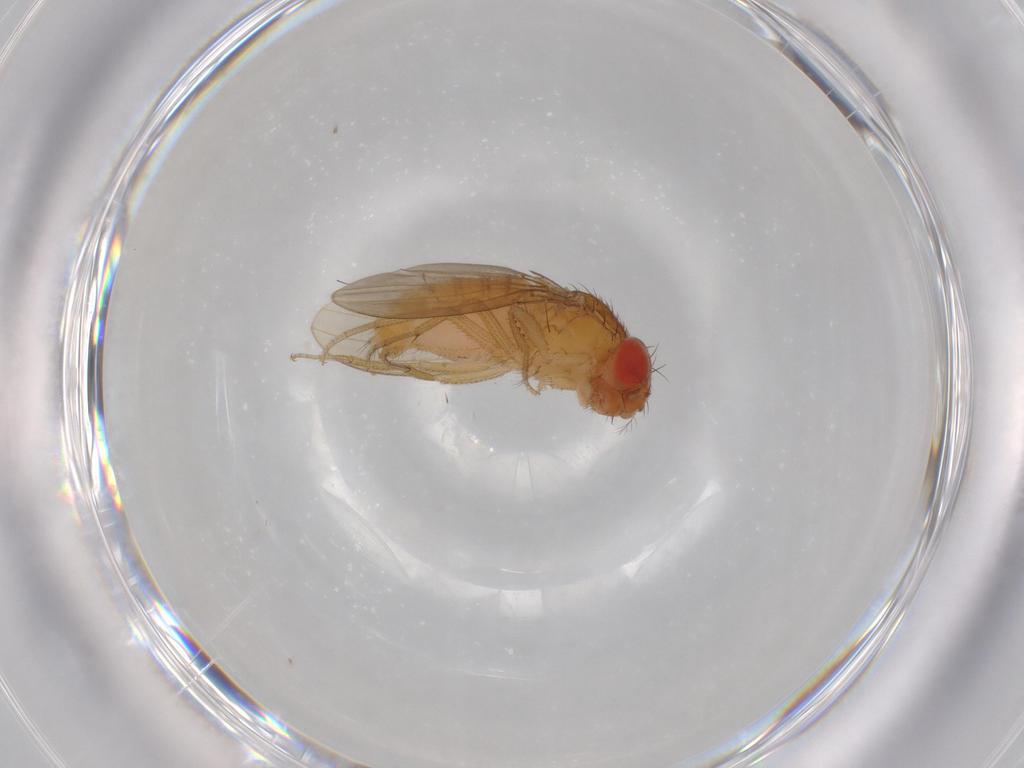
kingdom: Animalia
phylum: Arthropoda
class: Insecta
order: Diptera
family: Drosophilidae
